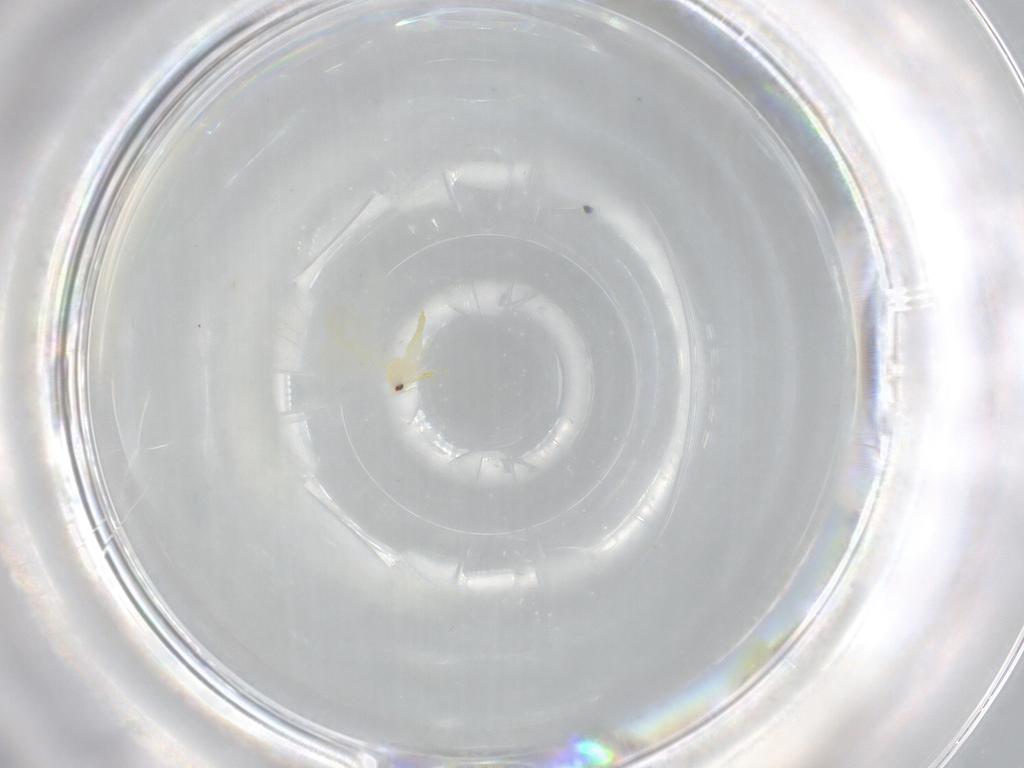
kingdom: Animalia
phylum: Arthropoda
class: Insecta
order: Hemiptera
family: Aleyrodidae
